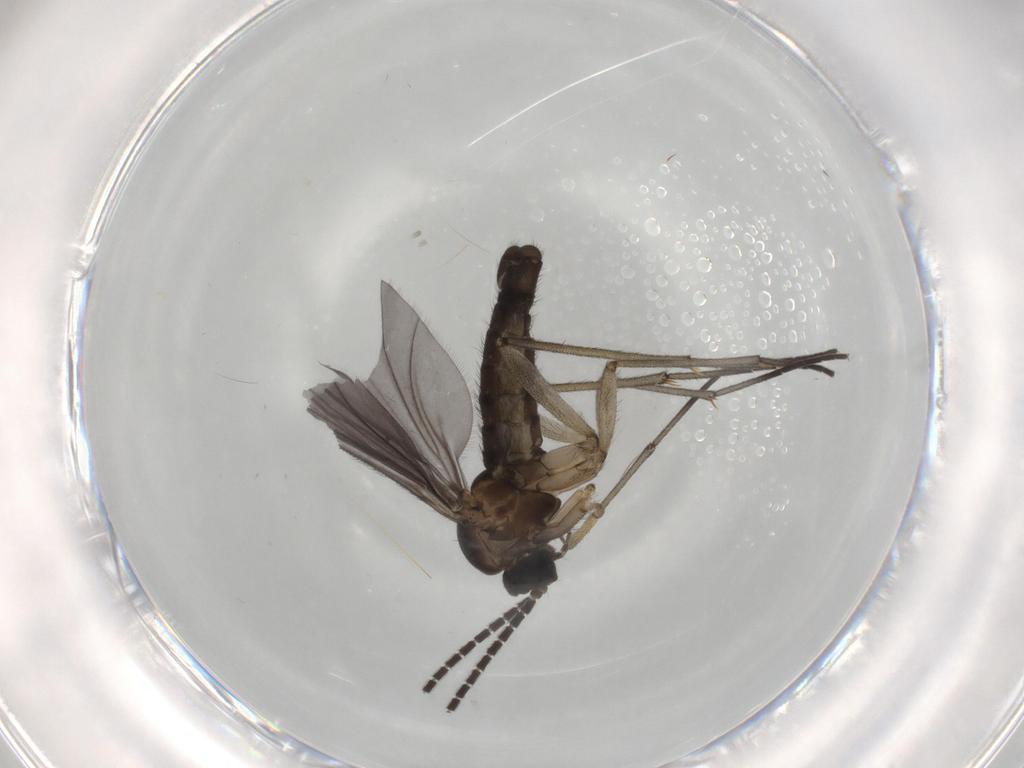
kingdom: Animalia
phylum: Arthropoda
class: Insecta
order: Diptera
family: Sciaridae
